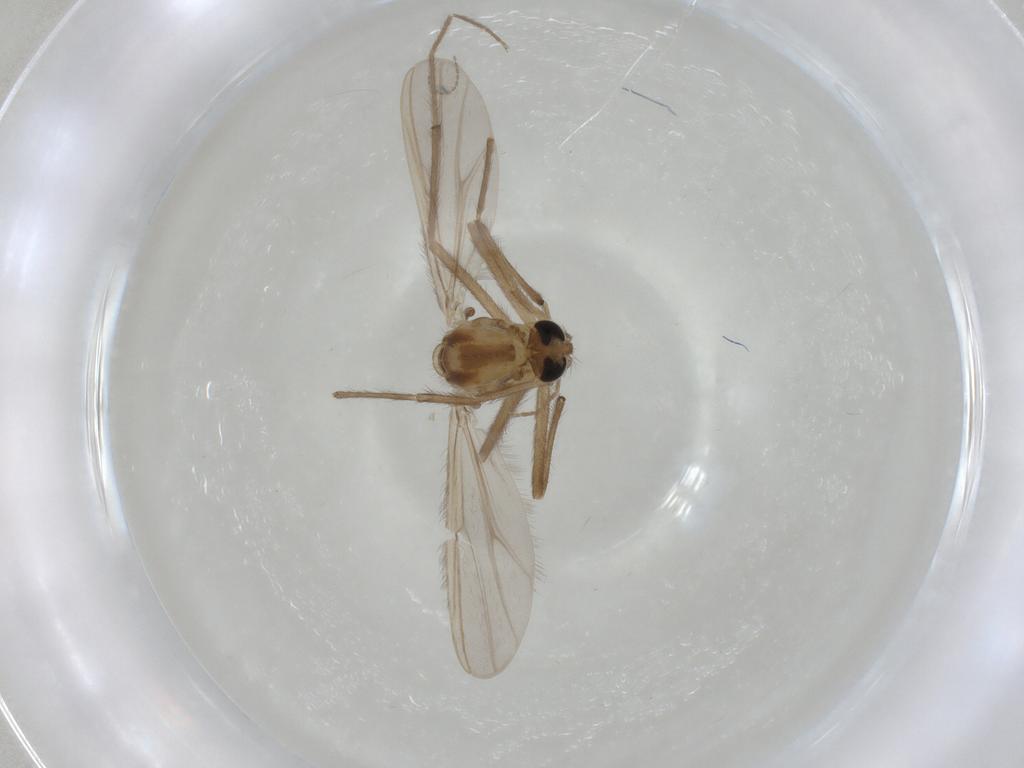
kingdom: Animalia
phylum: Arthropoda
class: Insecta
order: Diptera
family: Chironomidae
